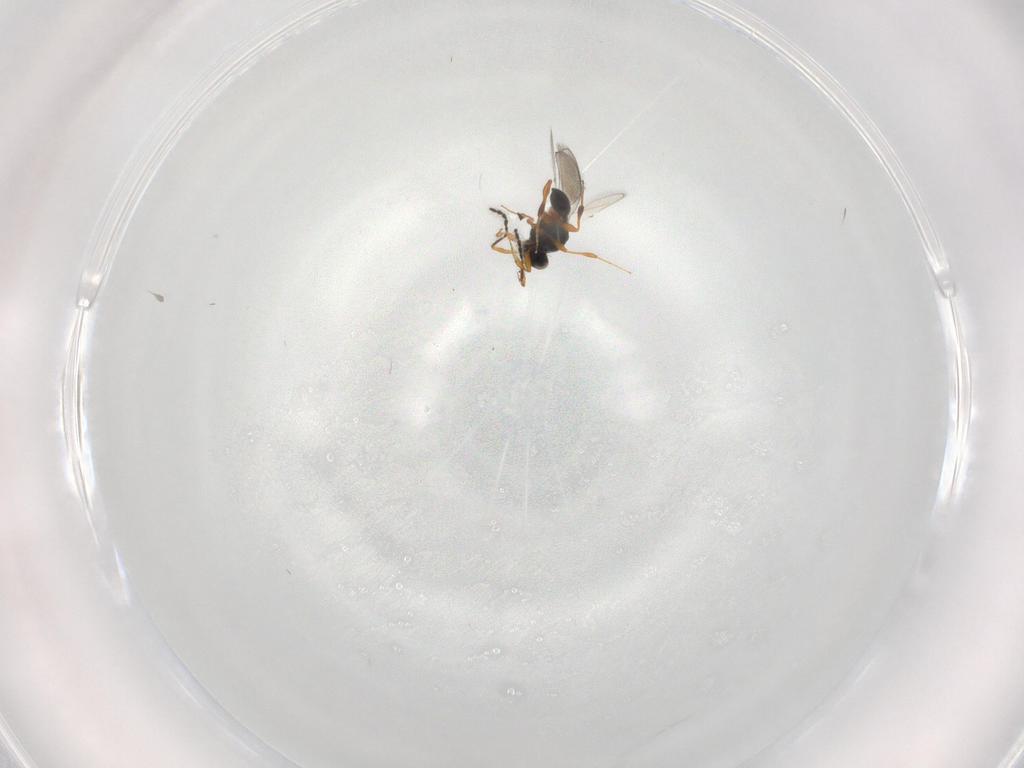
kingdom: Animalia
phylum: Arthropoda
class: Insecta
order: Hymenoptera
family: Platygastridae
